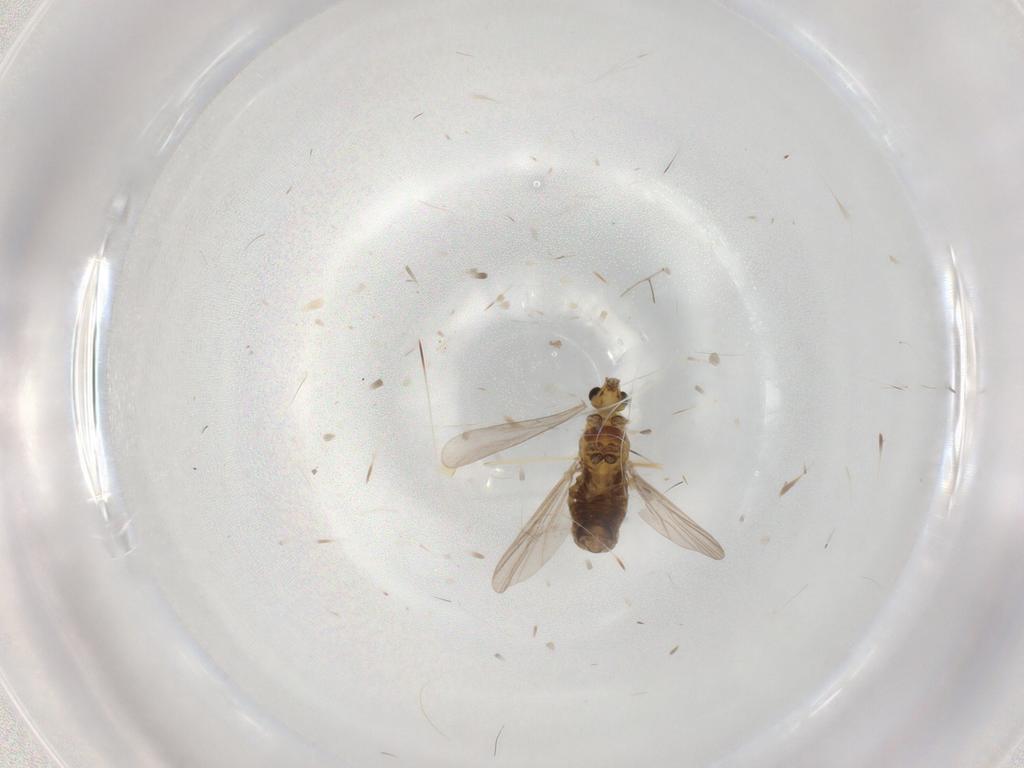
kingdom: Animalia
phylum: Arthropoda
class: Insecta
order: Diptera
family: Chironomidae
